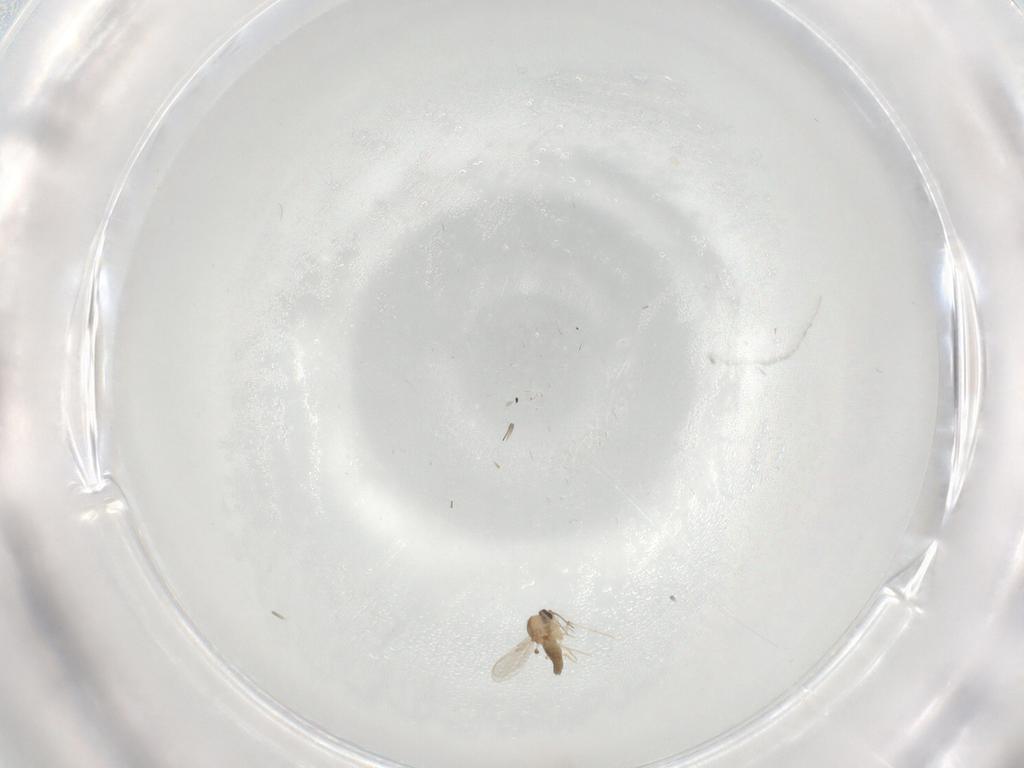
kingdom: Animalia
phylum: Arthropoda
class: Insecta
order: Diptera
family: Ceratopogonidae
